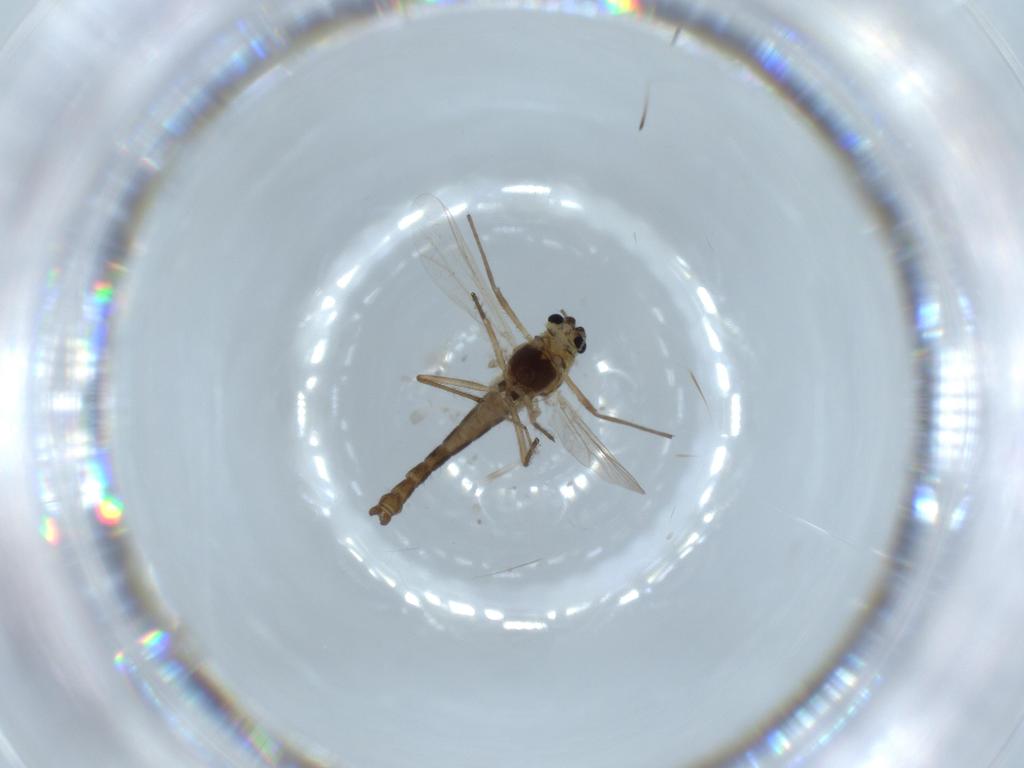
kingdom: Animalia
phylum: Arthropoda
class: Insecta
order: Diptera
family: Chironomidae
